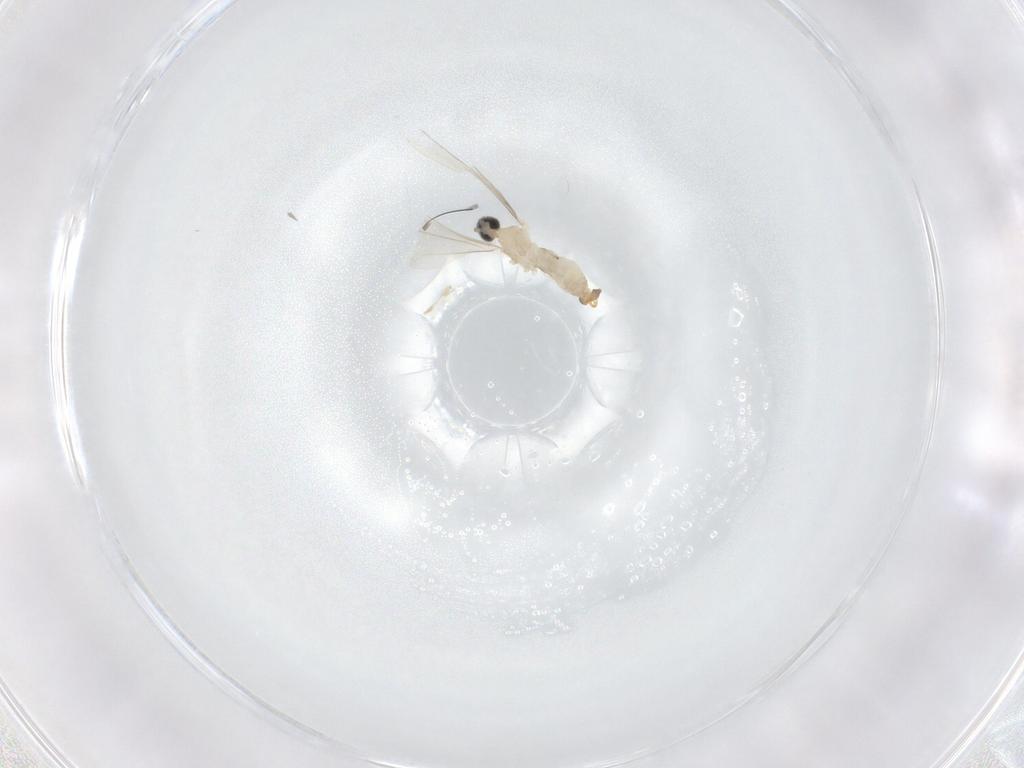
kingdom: Animalia
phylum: Arthropoda
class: Insecta
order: Diptera
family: Cecidomyiidae
